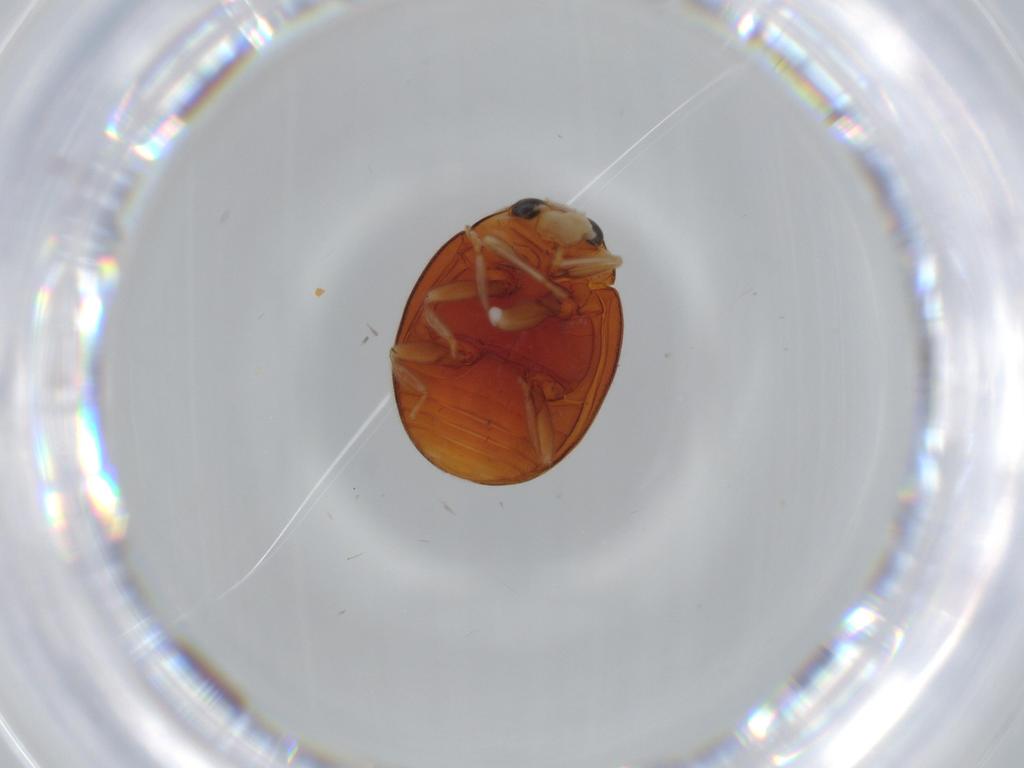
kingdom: Animalia
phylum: Arthropoda
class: Insecta
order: Coleoptera
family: Coccinellidae
